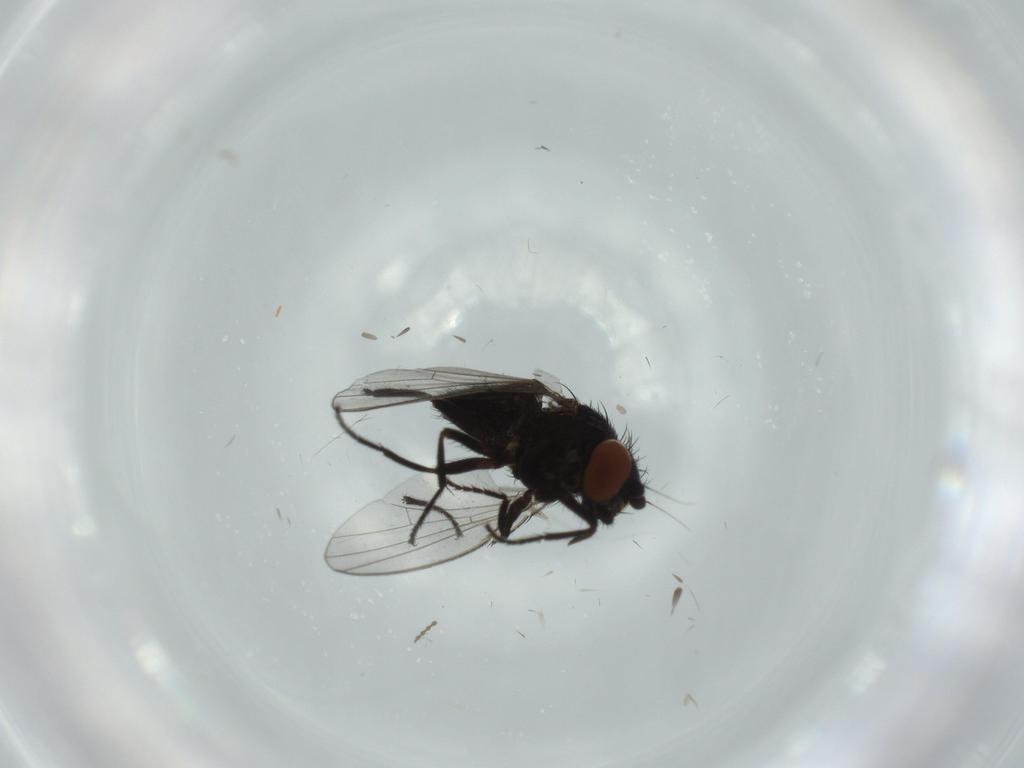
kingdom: Animalia
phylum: Arthropoda
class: Insecta
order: Diptera
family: Milichiidae
